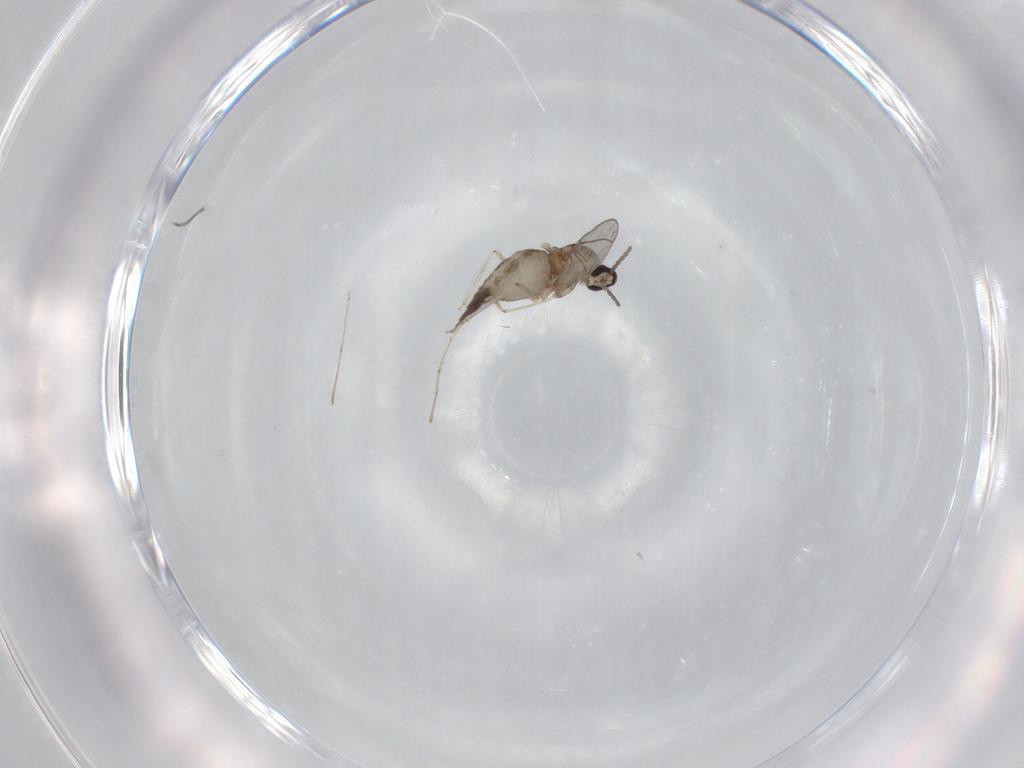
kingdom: Animalia
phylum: Arthropoda
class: Insecta
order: Diptera
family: Cecidomyiidae
